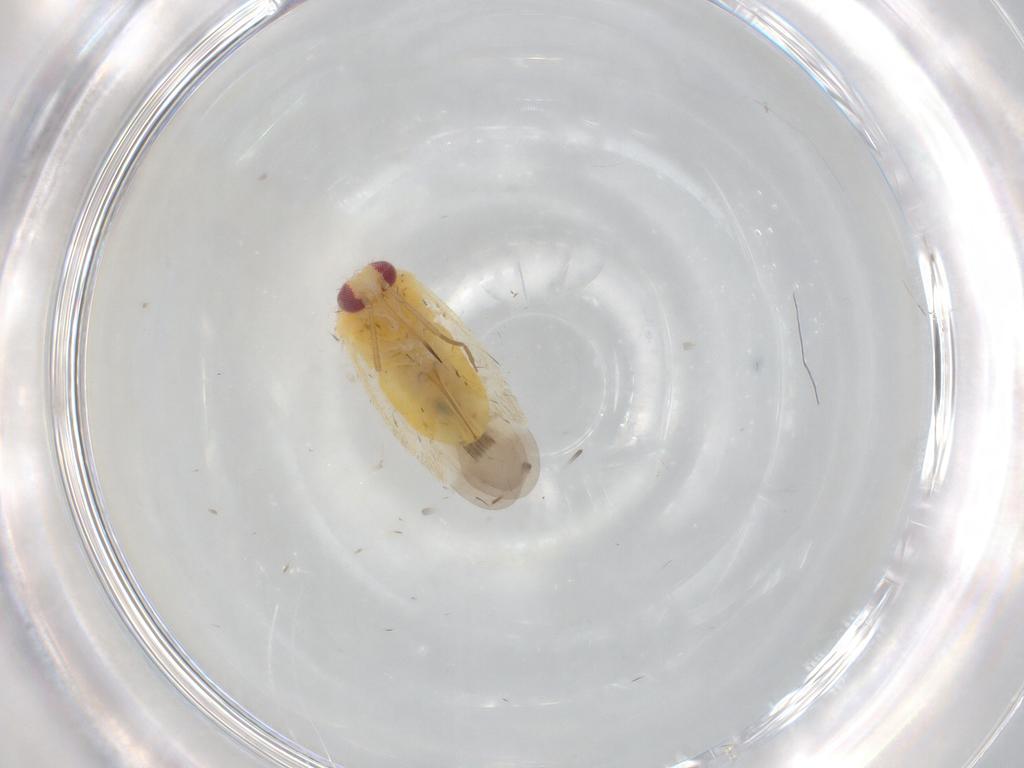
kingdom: Animalia
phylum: Arthropoda
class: Insecta
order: Hemiptera
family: Miridae
